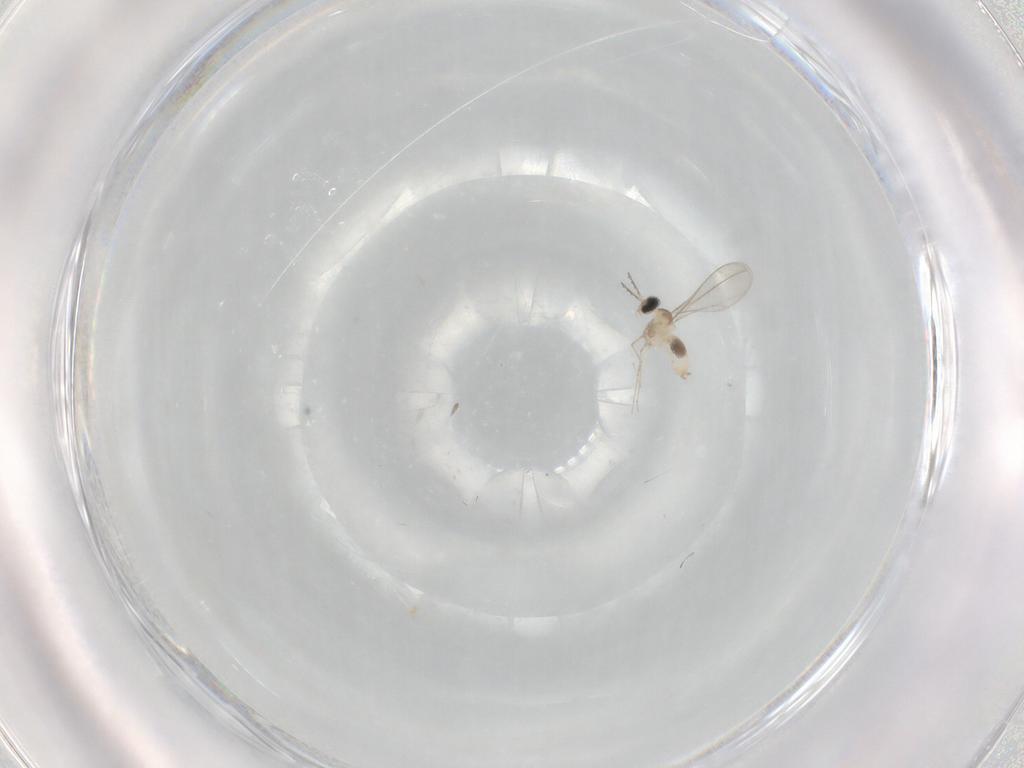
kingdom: Animalia
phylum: Arthropoda
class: Insecta
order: Diptera
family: Cecidomyiidae
